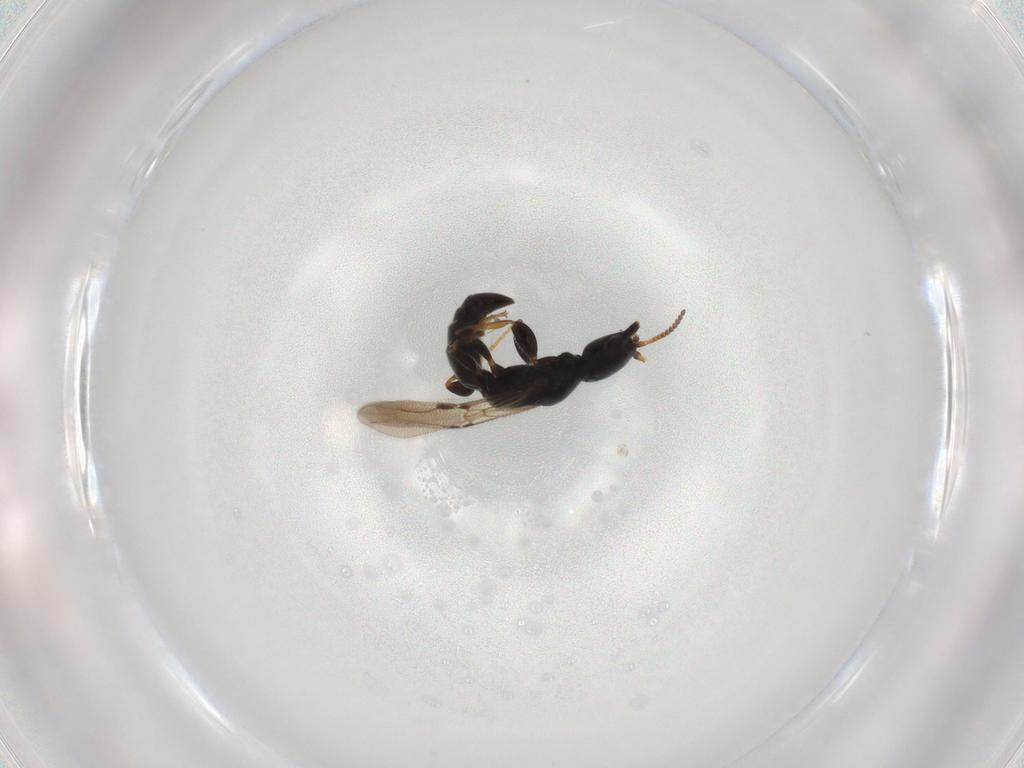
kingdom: Animalia
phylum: Arthropoda
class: Insecta
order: Hymenoptera
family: Bethylidae
